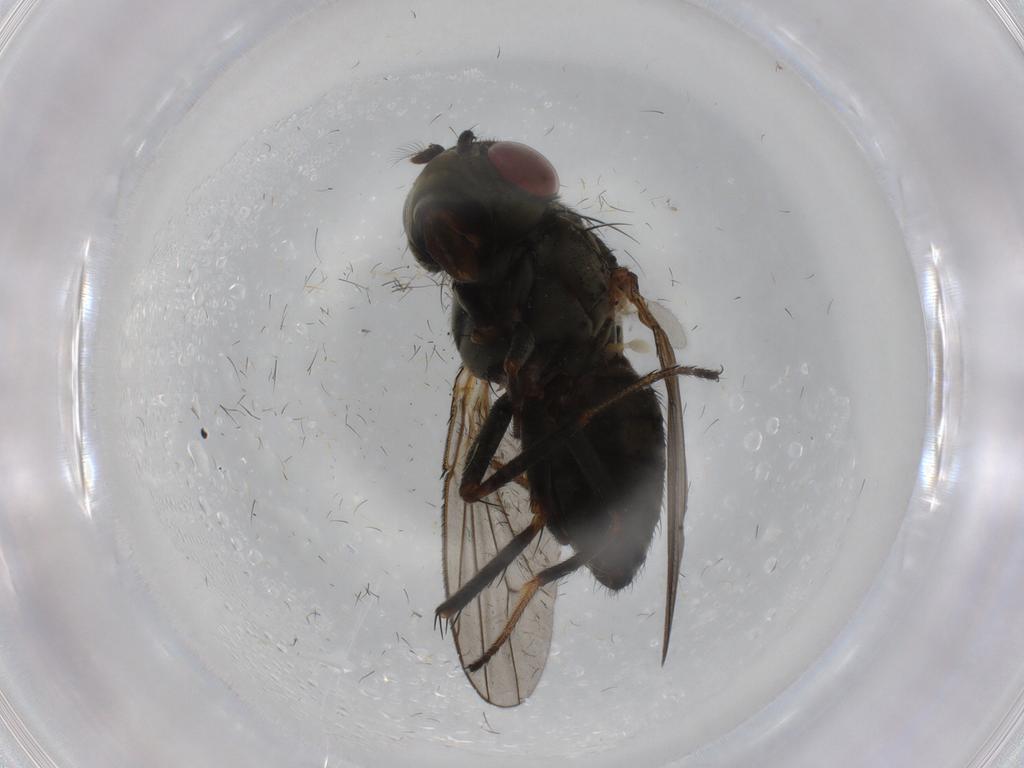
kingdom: Animalia
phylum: Arthropoda
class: Insecta
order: Diptera
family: Ephydridae
